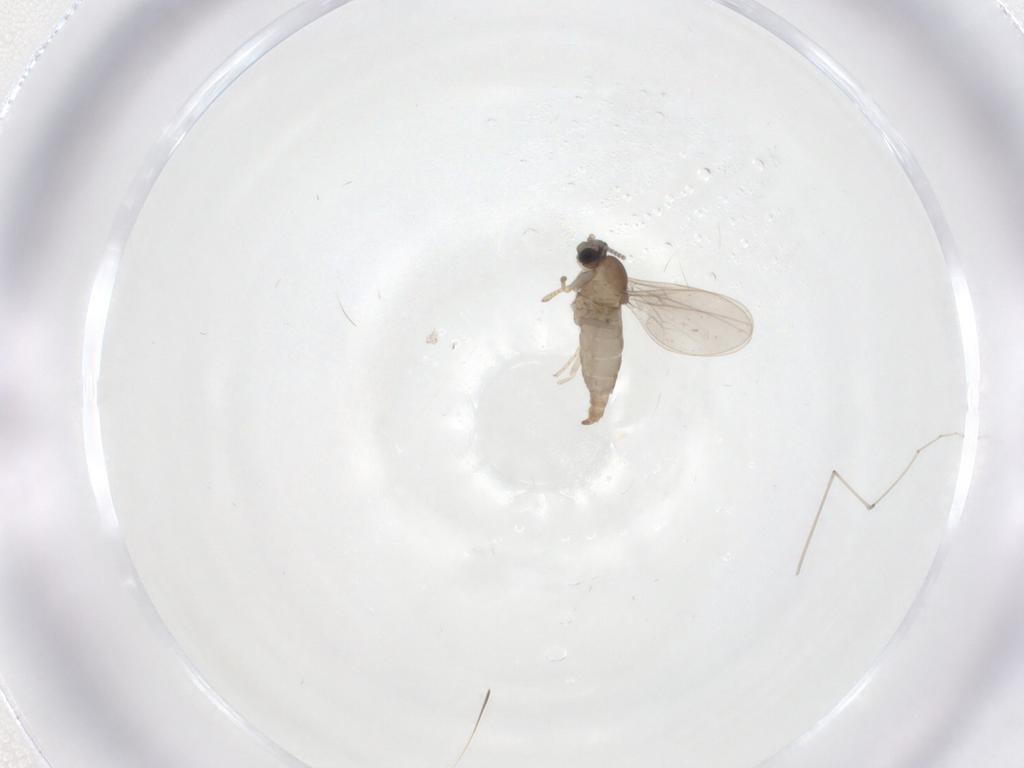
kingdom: Animalia
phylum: Arthropoda
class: Insecta
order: Diptera
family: Cecidomyiidae
